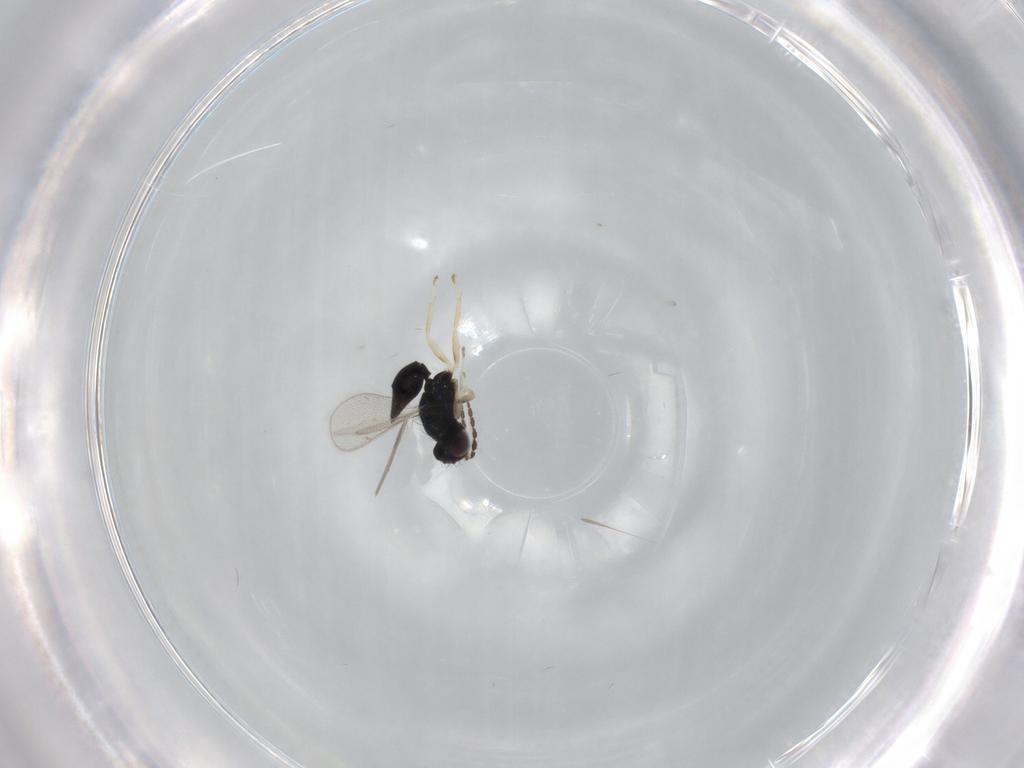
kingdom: Animalia
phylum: Arthropoda
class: Insecta
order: Hymenoptera
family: Eulophidae
